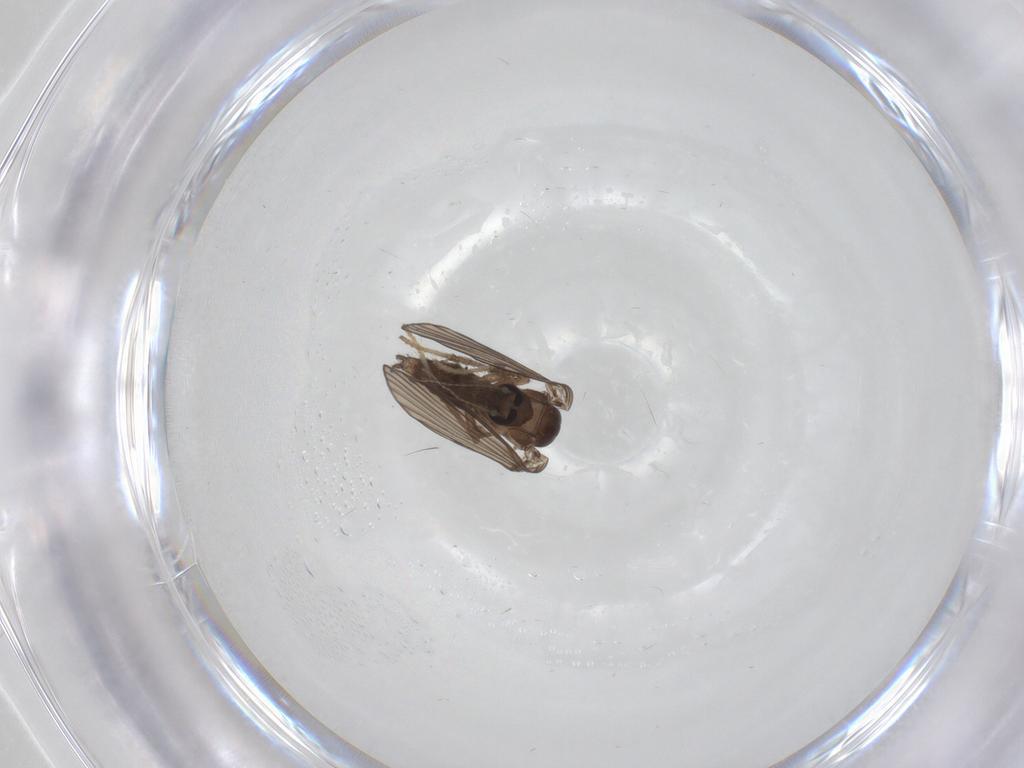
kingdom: Animalia
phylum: Arthropoda
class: Insecta
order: Diptera
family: Psychodidae
